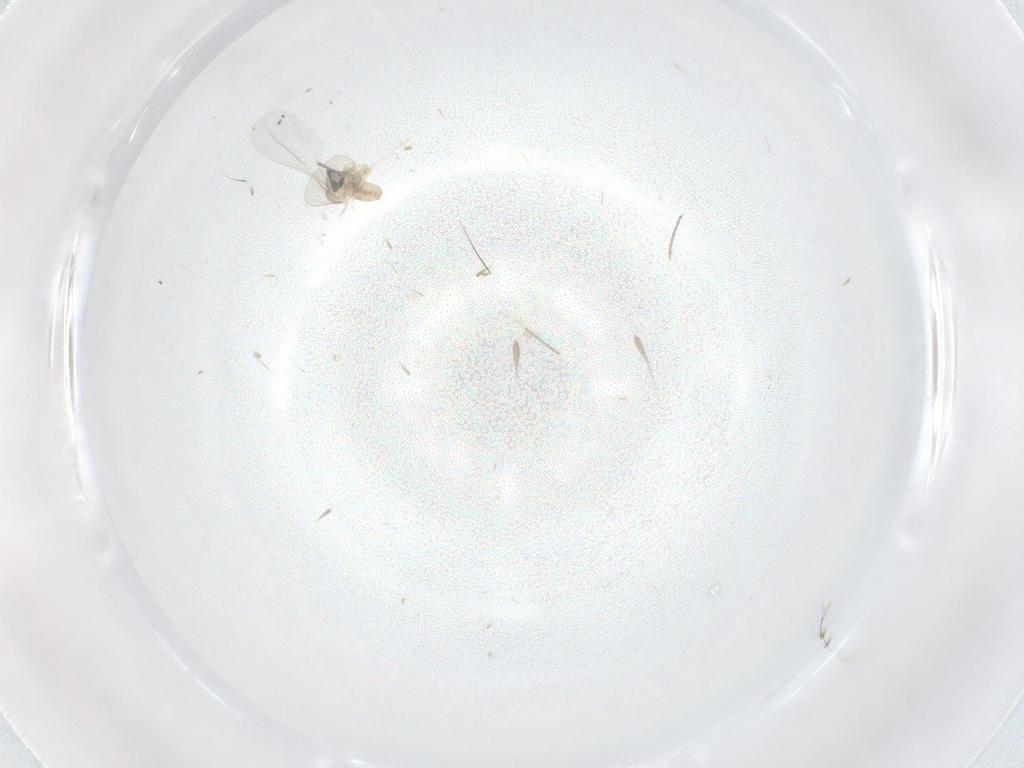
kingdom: Animalia
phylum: Arthropoda
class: Insecta
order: Diptera
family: Cecidomyiidae
